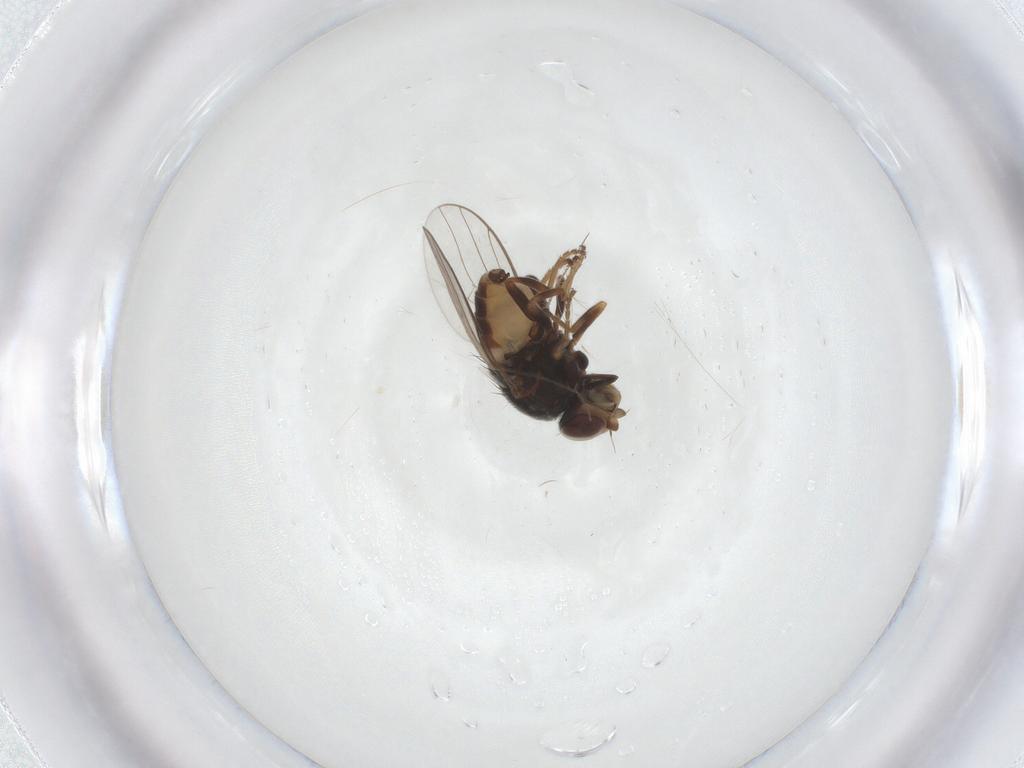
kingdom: Animalia
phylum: Arthropoda
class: Insecta
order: Diptera
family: Chloropidae
